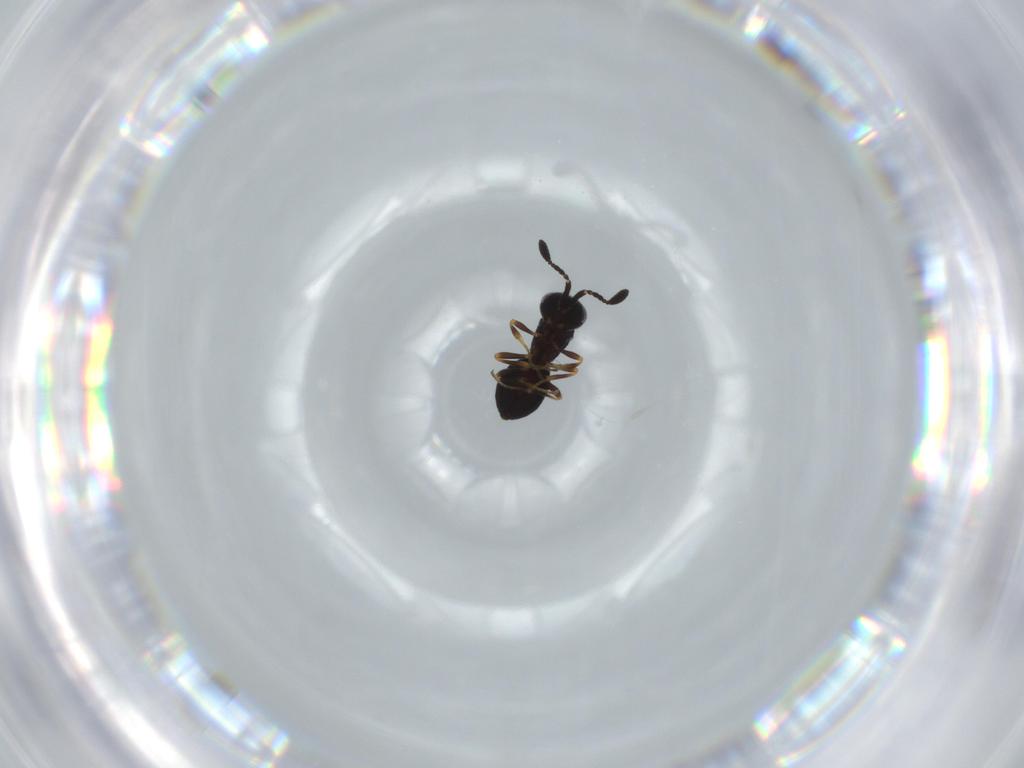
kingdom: Animalia
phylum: Arthropoda
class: Insecta
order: Hymenoptera
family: Scelionidae
